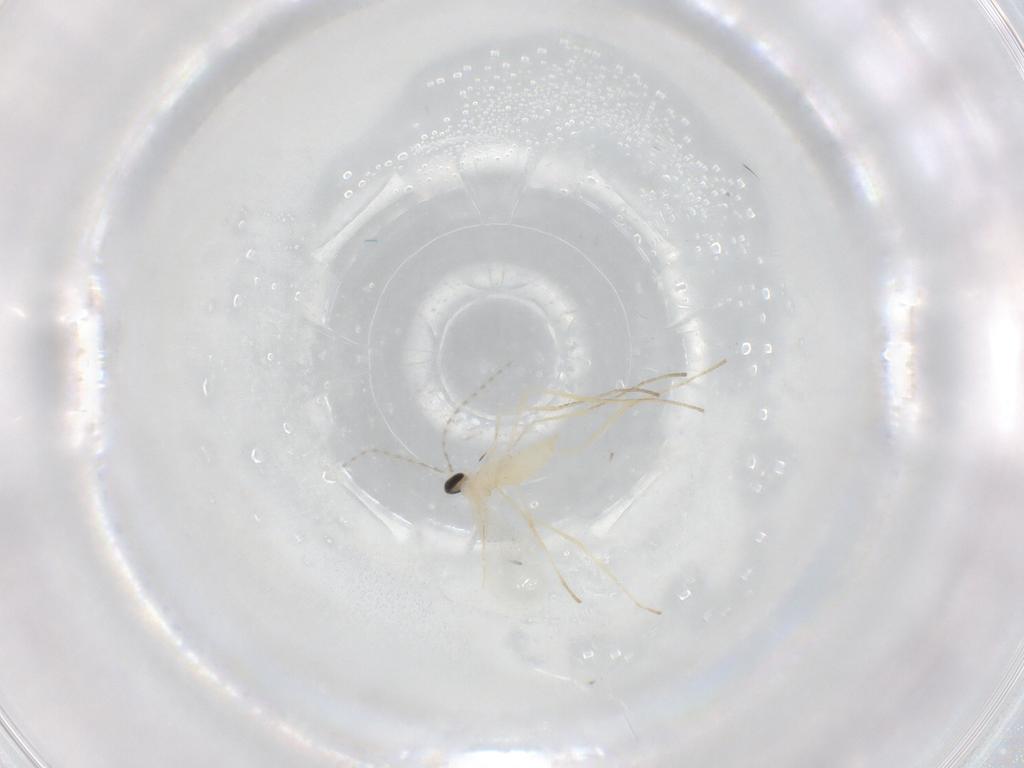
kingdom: Animalia
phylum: Arthropoda
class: Insecta
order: Diptera
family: Cecidomyiidae
